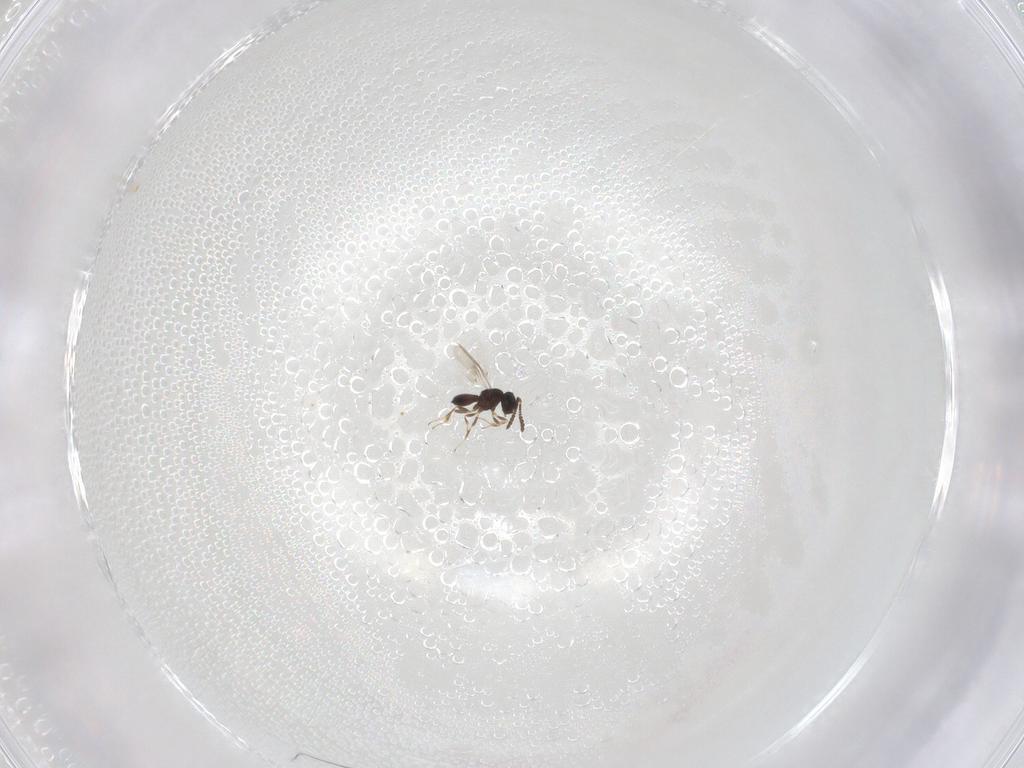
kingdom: Animalia
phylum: Arthropoda
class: Insecta
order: Hymenoptera
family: Scelionidae
